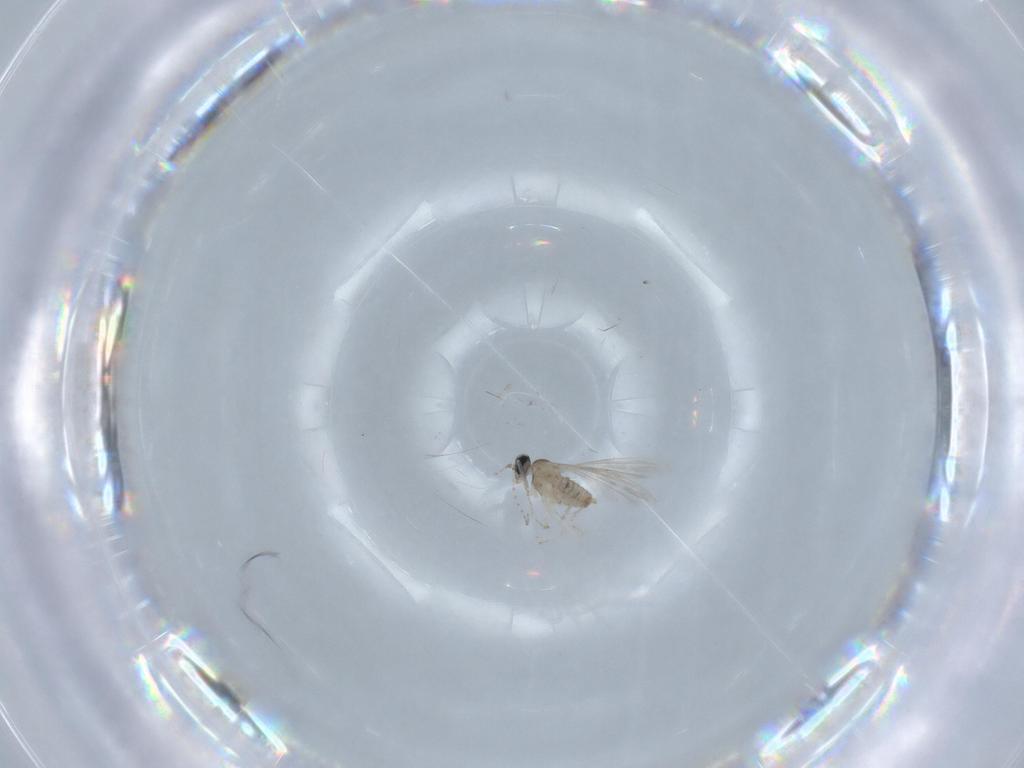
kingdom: Animalia
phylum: Arthropoda
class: Insecta
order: Diptera
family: Cecidomyiidae
